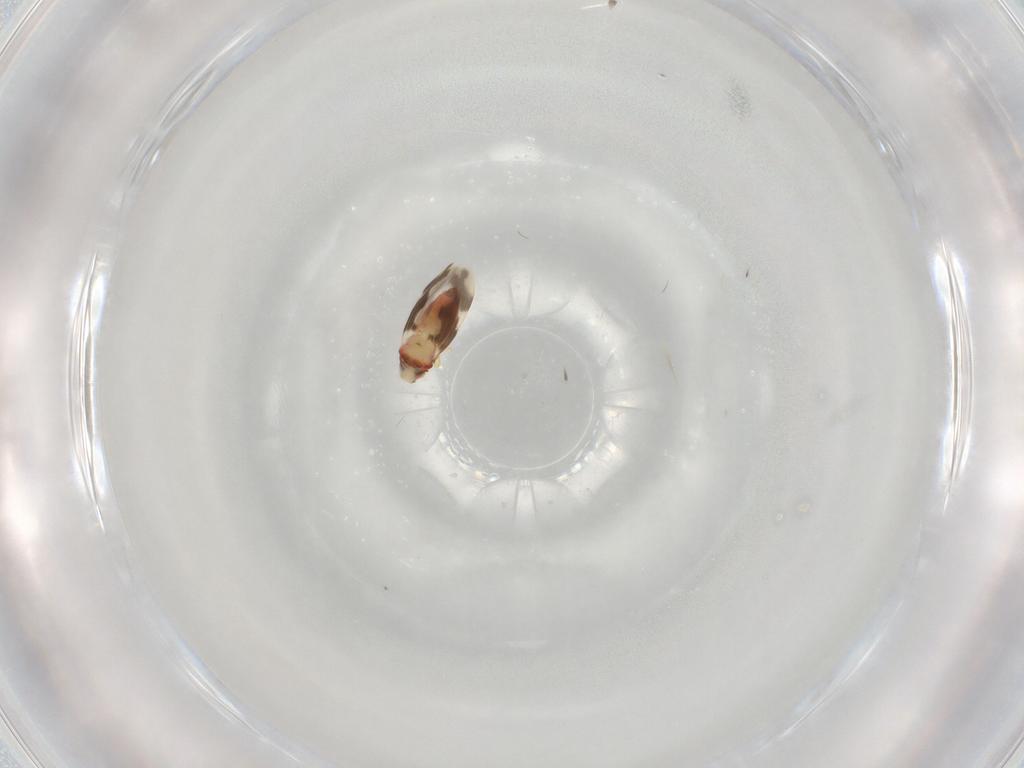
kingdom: Animalia
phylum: Arthropoda
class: Insecta
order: Hemiptera
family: Aleyrodidae
